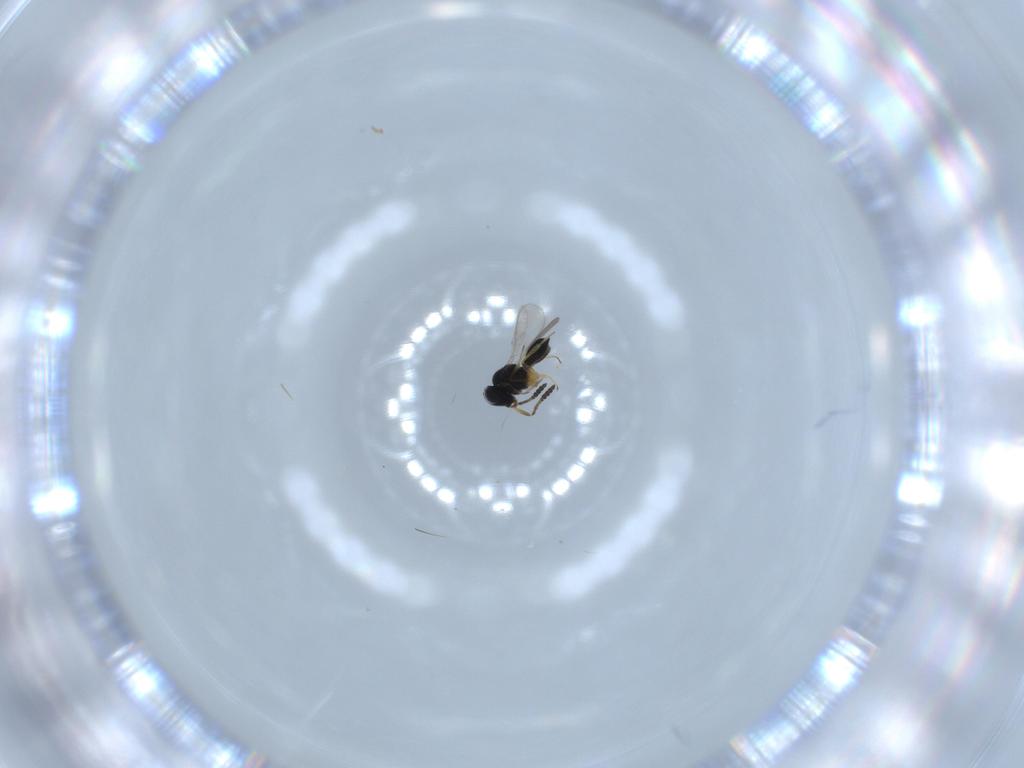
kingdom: Animalia
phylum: Arthropoda
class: Insecta
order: Hymenoptera
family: Scelionidae
